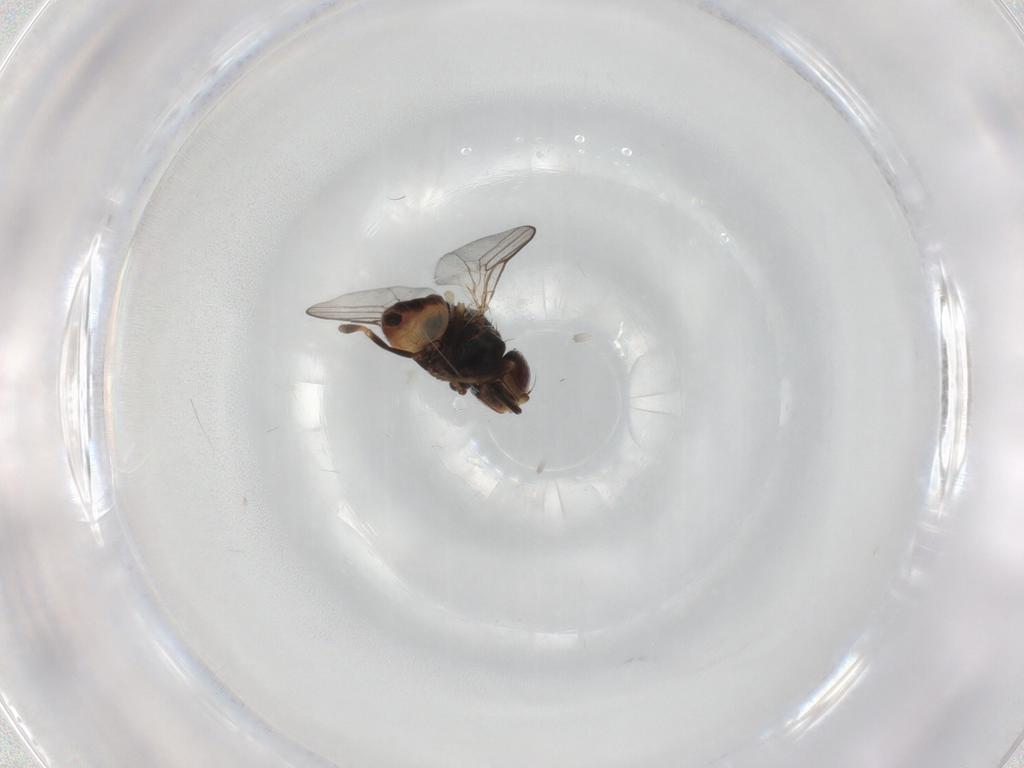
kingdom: Animalia
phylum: Arthropoda
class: Insecta
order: Diptera
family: Chloropidae
